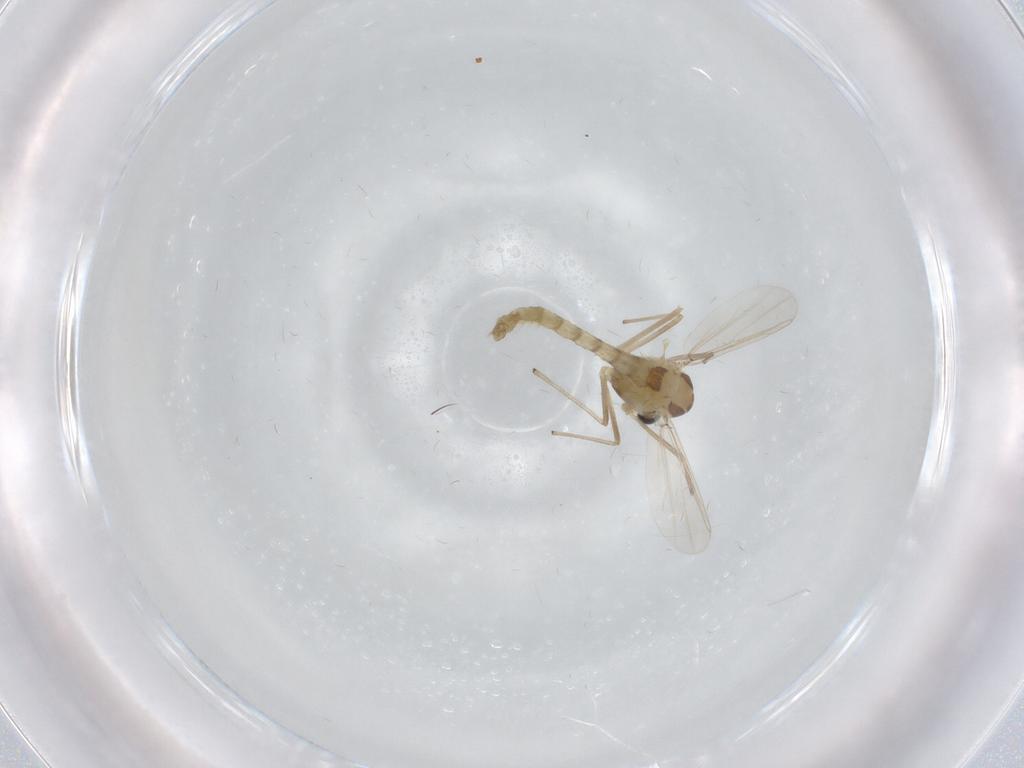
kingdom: Animalia
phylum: Arthropoda
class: Insecta
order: Diptera
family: Chironomidae
